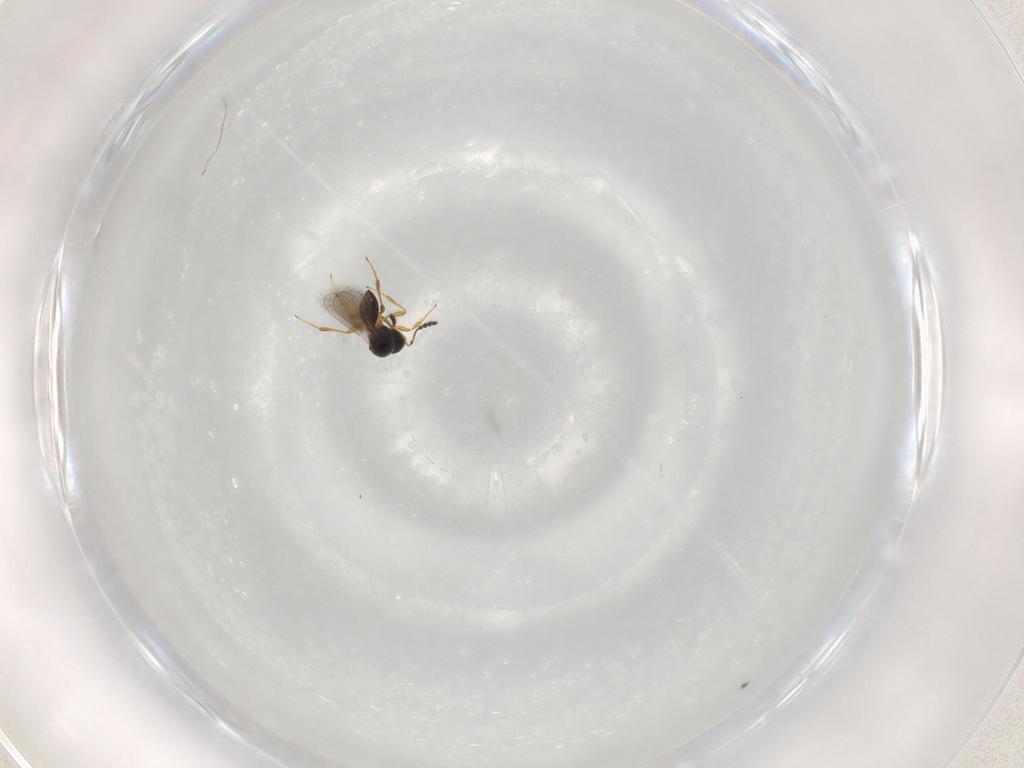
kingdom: Animalia
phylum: Arthropoda
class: Insecta
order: Hymenoptera
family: Platygastridae
